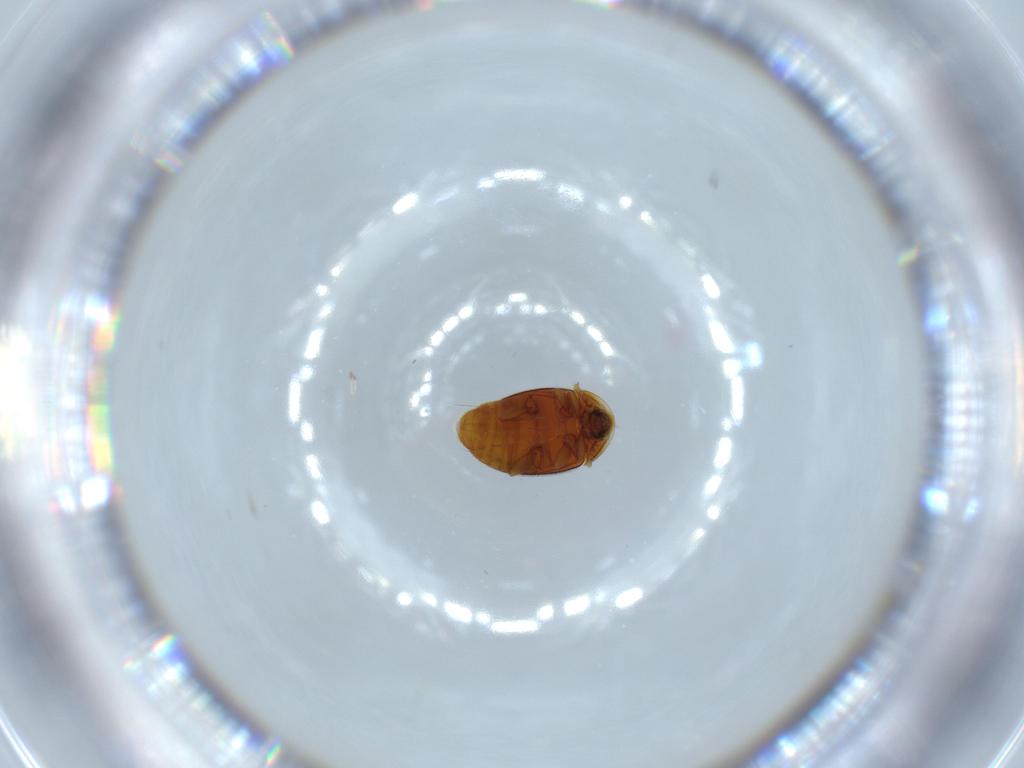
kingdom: Animalia
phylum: Arthropoda
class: Insecta
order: Coleoptera
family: Corylophidae
